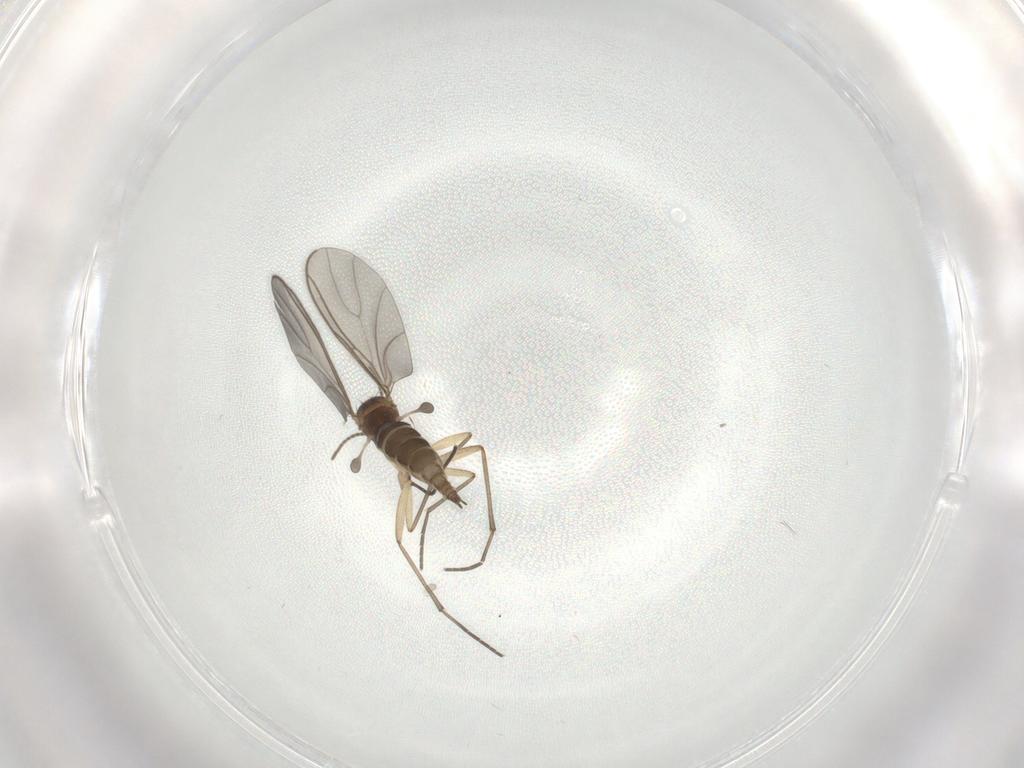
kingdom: Animalia
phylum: Arthropoda
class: Insecta
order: Diptera
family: Sciaridae
